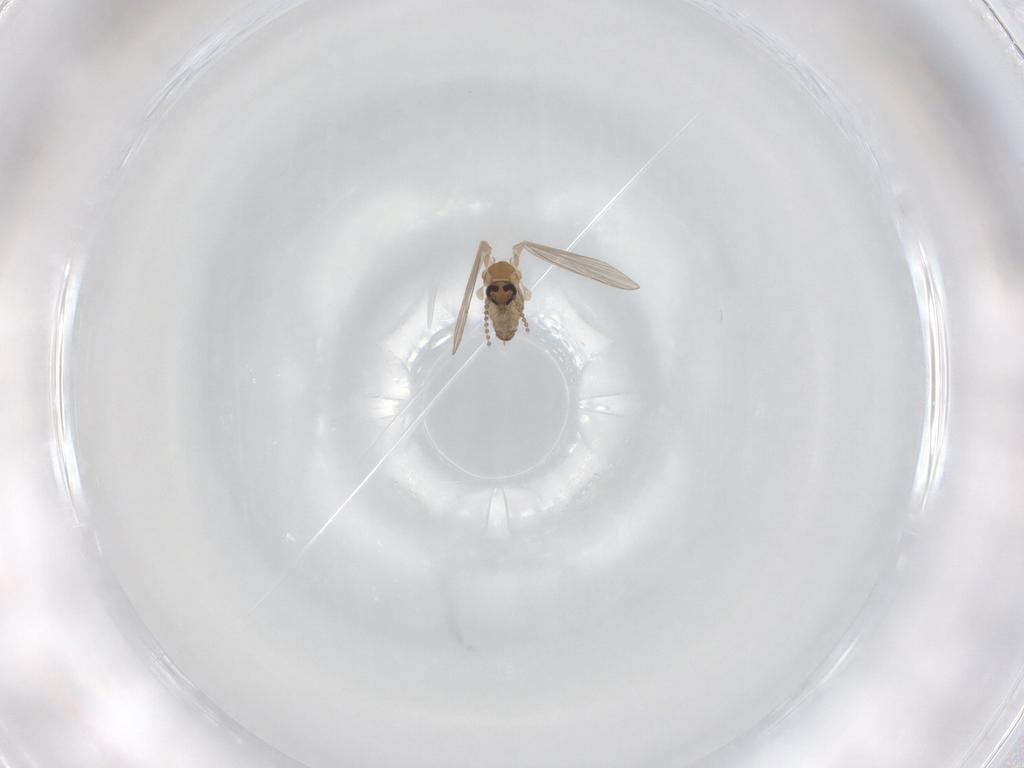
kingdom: Animalia
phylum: Arthropoda
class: Insecta
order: Diptera
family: Psychodidae
